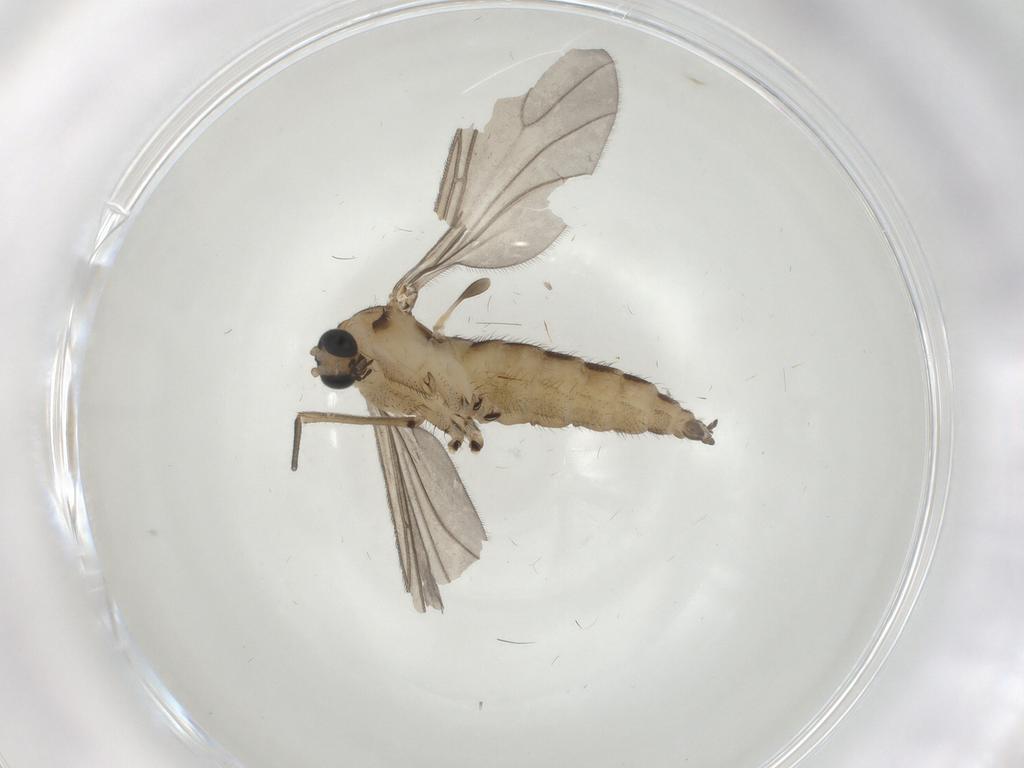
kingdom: Animalia
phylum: Arthropoda
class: Insecta
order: Diptera
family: Sciaridae
